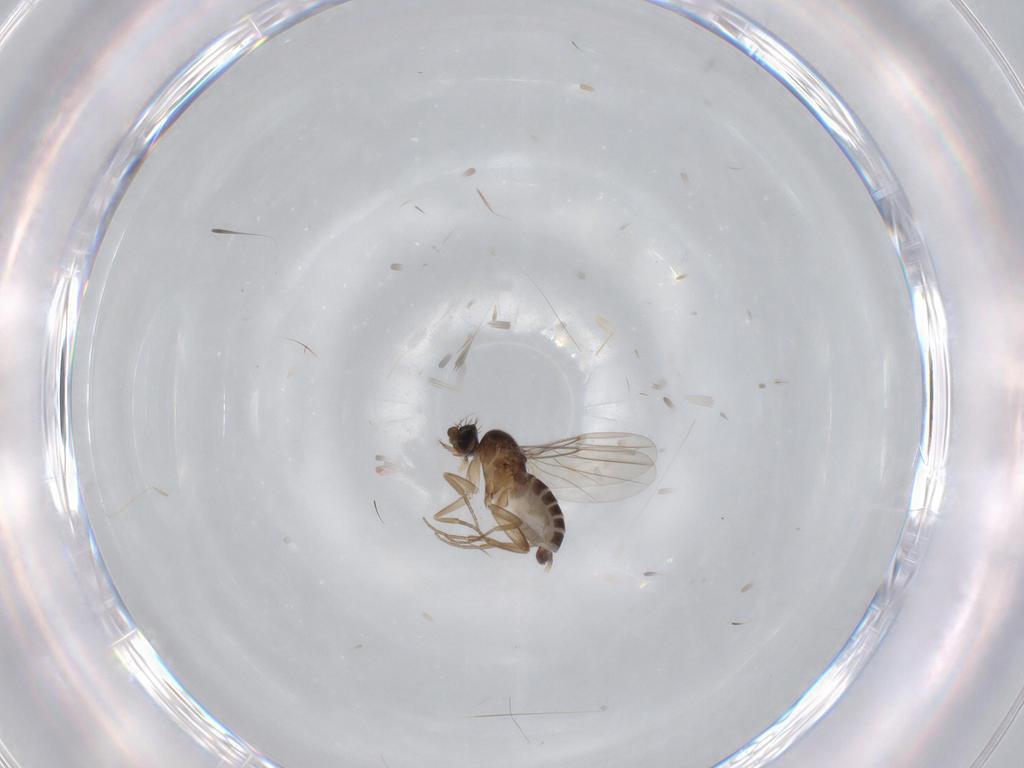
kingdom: Animalia
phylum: Arthropoda
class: Insecta
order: Diptera
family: Phoridae
